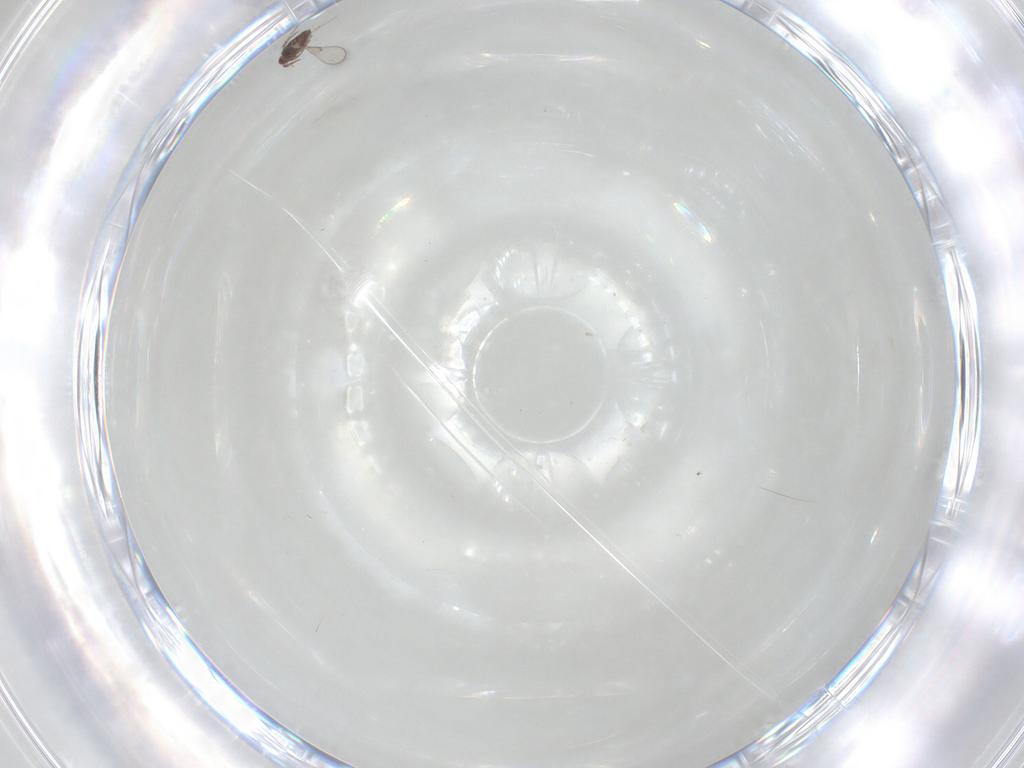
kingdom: Animalia
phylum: Arthropoda
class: Insecta
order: Hymenoptera
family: Trichogrammatidae
